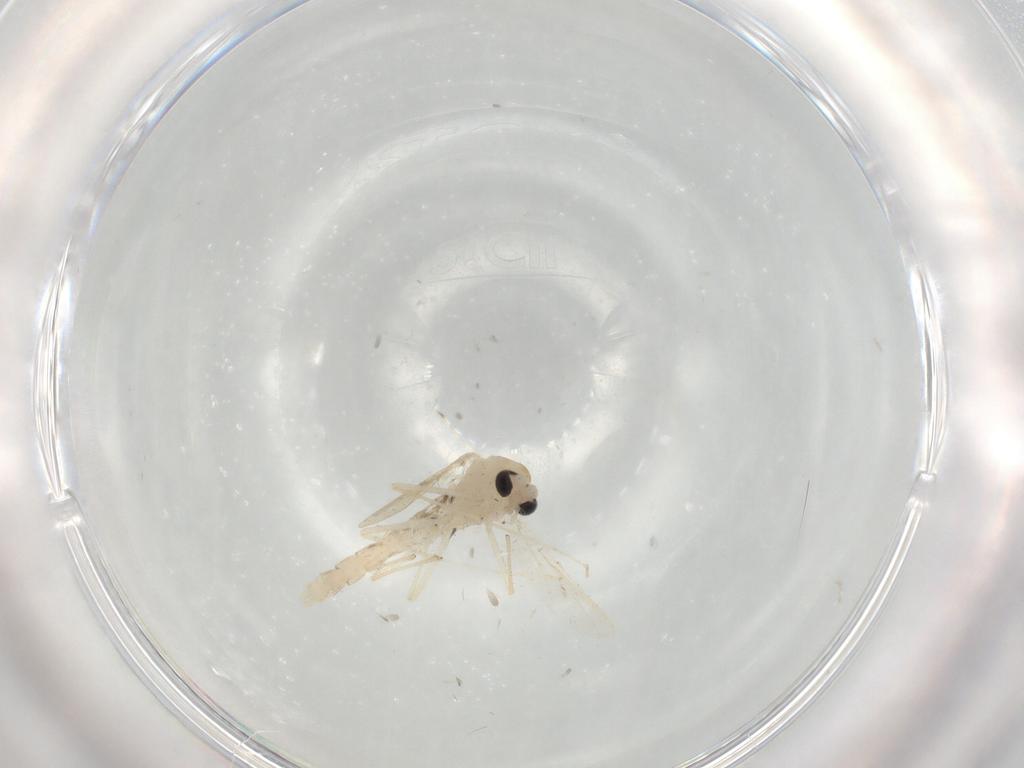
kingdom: Animalia
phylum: Arthropoda
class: Insecta
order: Diptera
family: Chironomidae
